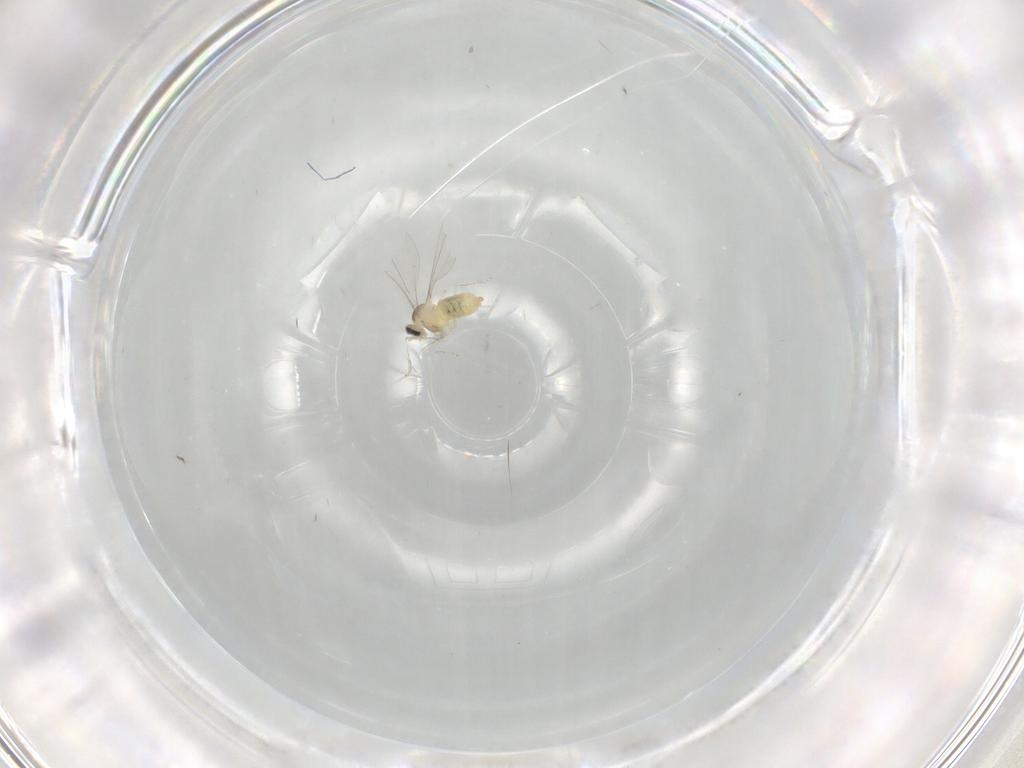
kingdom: Animalia
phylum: Arthropoda
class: Insecta
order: Diptera
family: Cecidomyiidae
